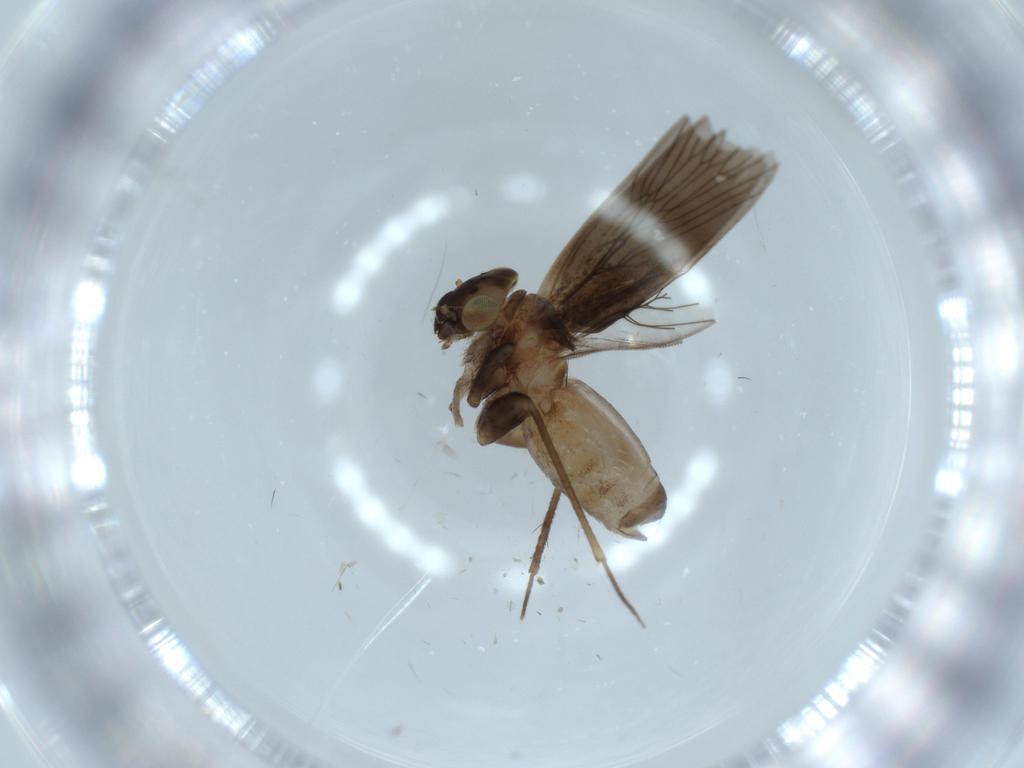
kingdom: Animalia
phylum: Arthropoda
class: Insecta
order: Psocodea
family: Lepidopsocidae
